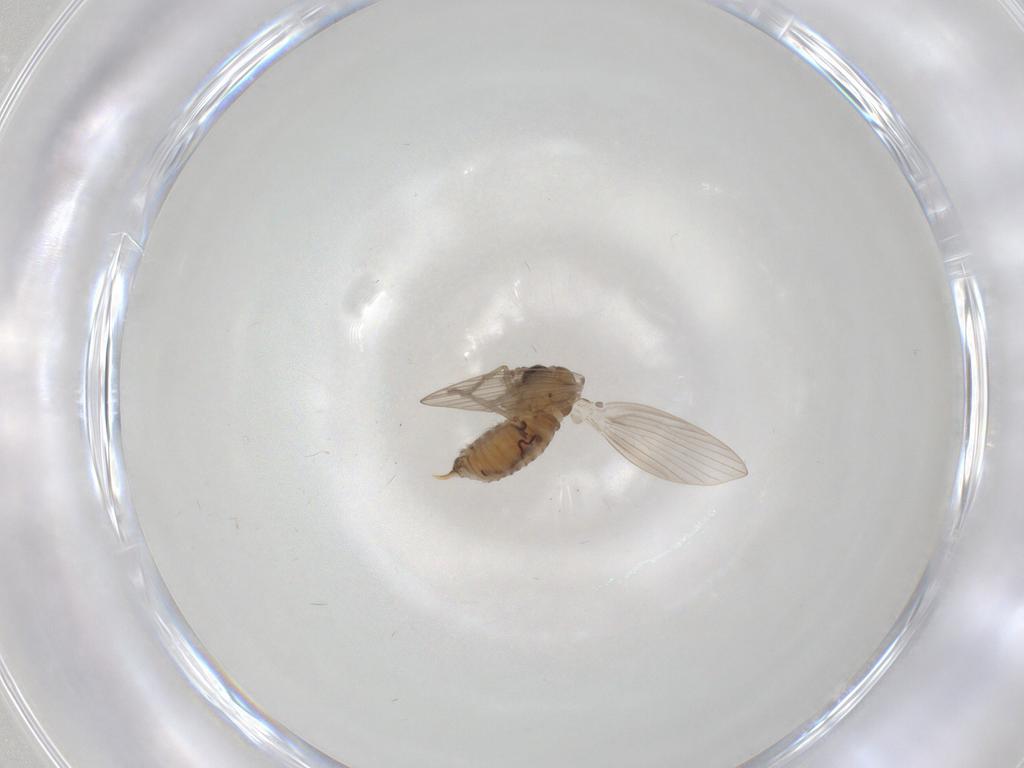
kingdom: Animalia
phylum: Arthropoda
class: Insecta
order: Diptera
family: Psychodidae
